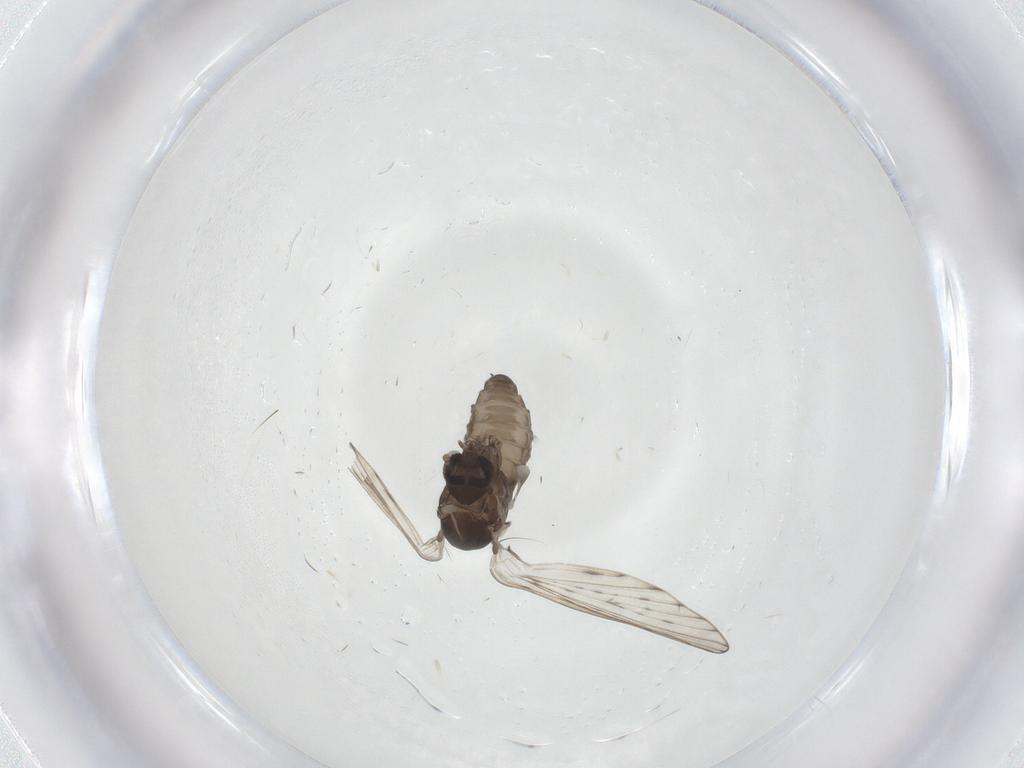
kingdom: Animalia
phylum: Arthropoda
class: Insecta
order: Diptera
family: Psychodidae
